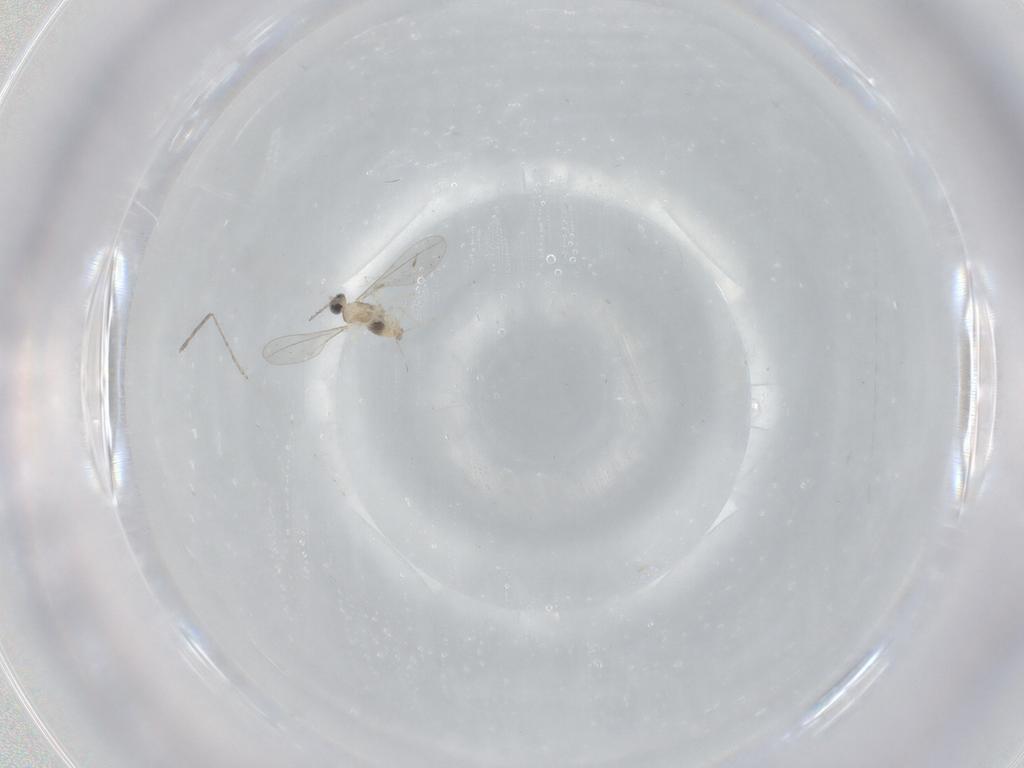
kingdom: Animalia
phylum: Arthropoda
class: Insecta
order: Diptera
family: Cecidomyiidae
